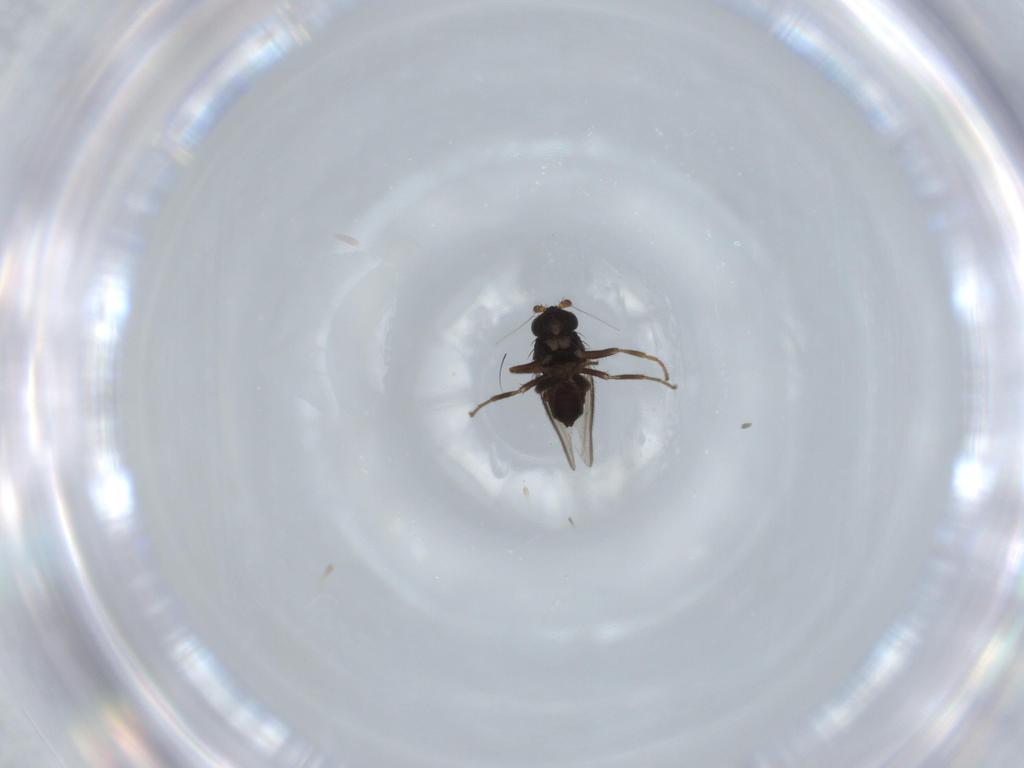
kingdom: Animalia
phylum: Arthropoda
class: Insecta
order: Diptera
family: Sphaeroceridae
